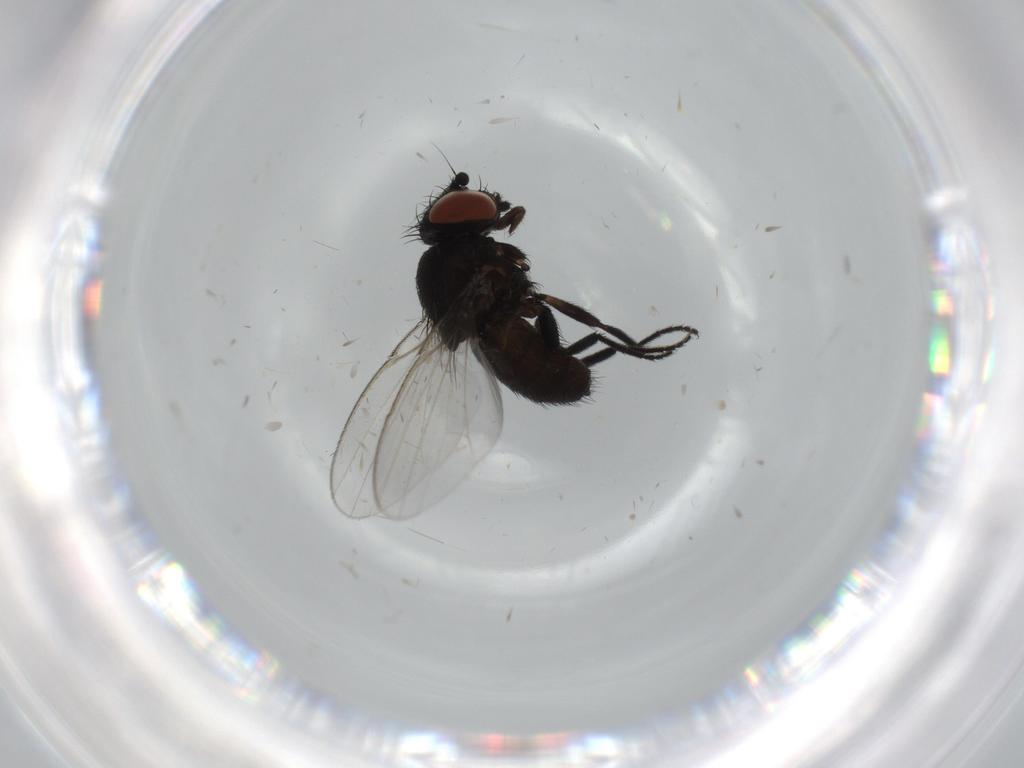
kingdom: Animalia
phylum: Arthropoda
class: Insecta
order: Diptera
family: Milichiidae
